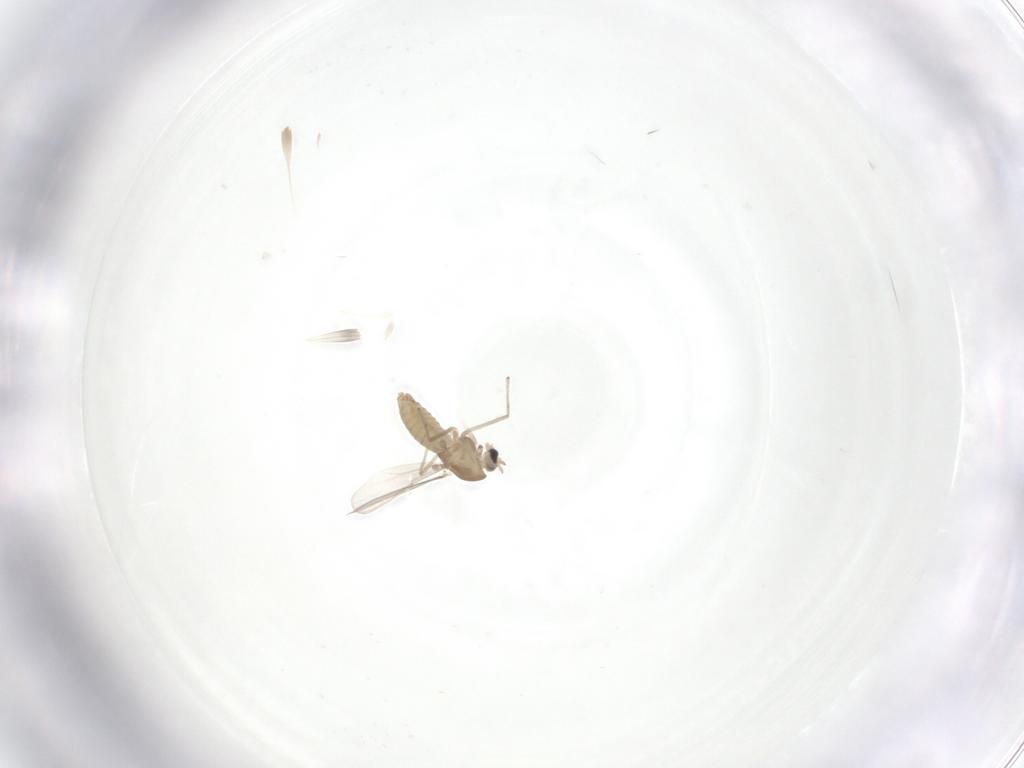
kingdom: Animalia
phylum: Arthropoda
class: Insecta
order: Diptera
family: Chironomidae
